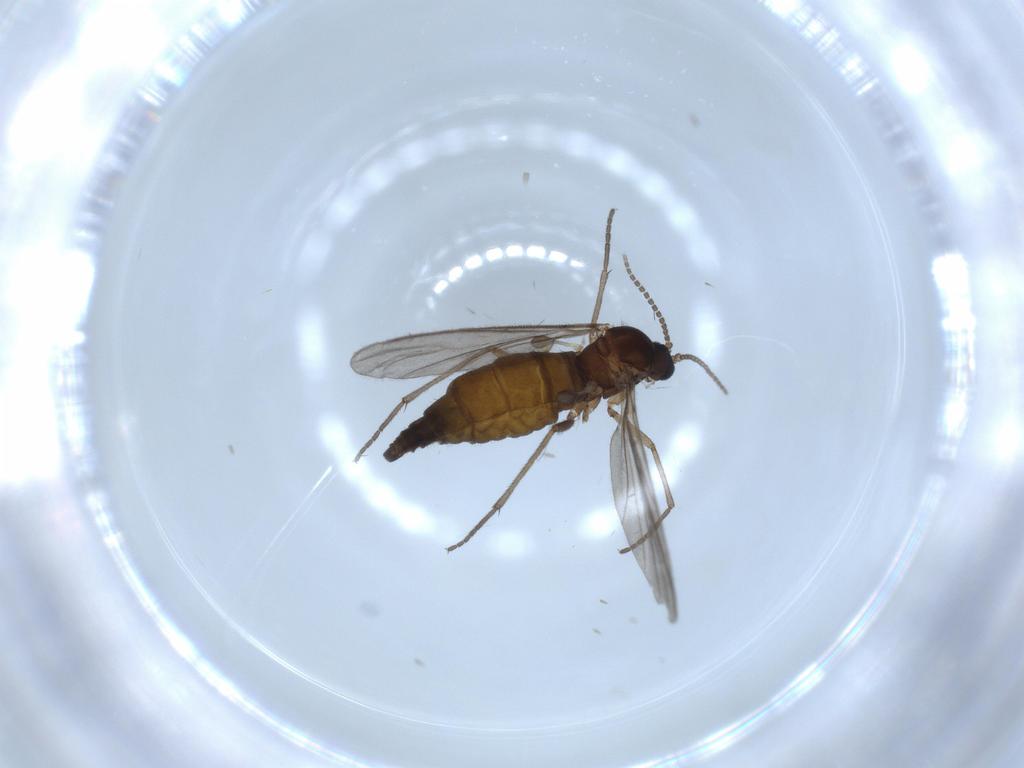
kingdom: Animalia
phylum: Arthropoda
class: Insecta
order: Diptera
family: Sciaridae
